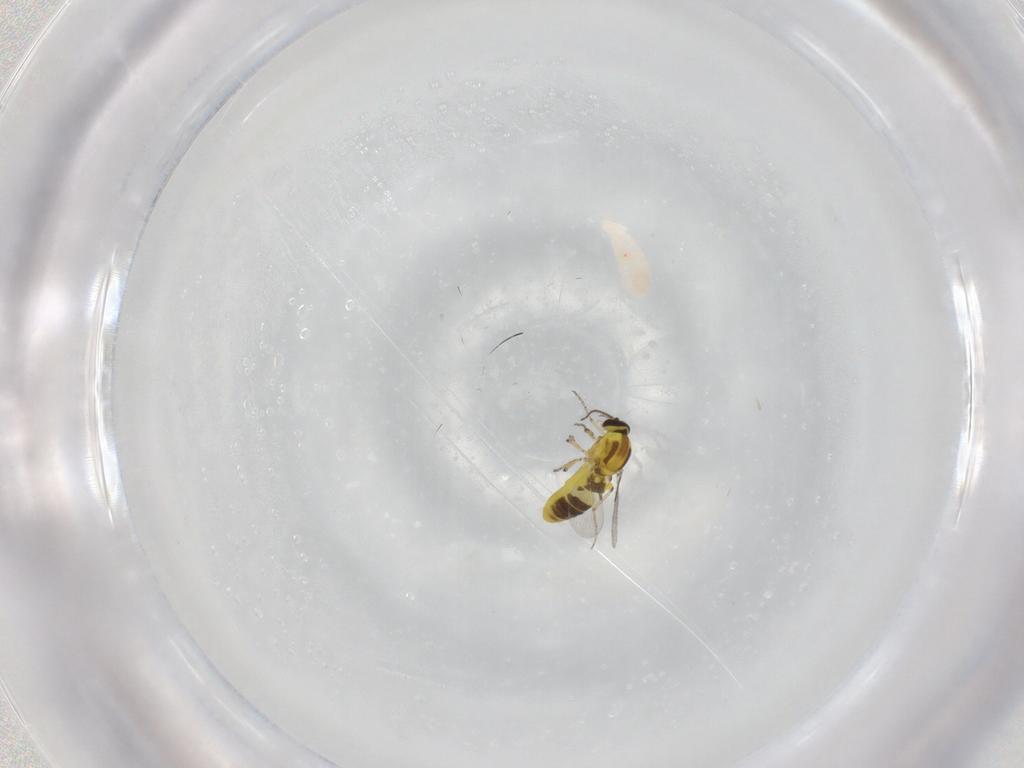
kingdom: Animalia
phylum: Arthropoda
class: Insecta
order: Diptera
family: Ceratopogonidae
